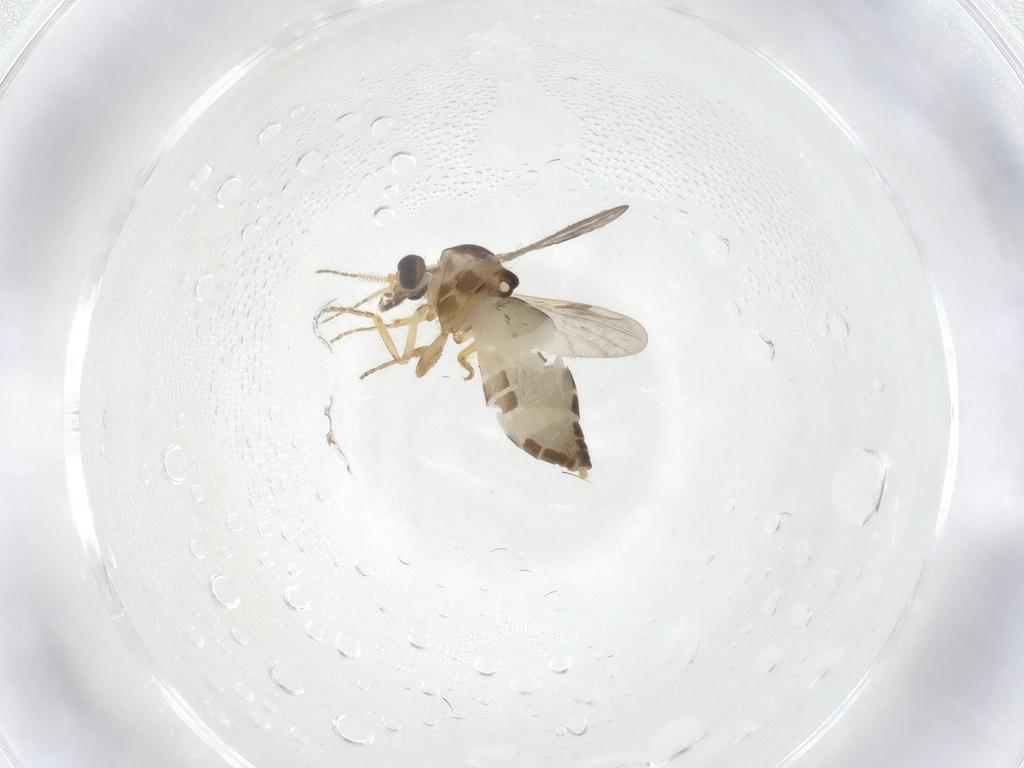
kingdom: Animalia
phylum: Arthropoda
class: Insecta
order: Diptera
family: Ceratopogonidae
